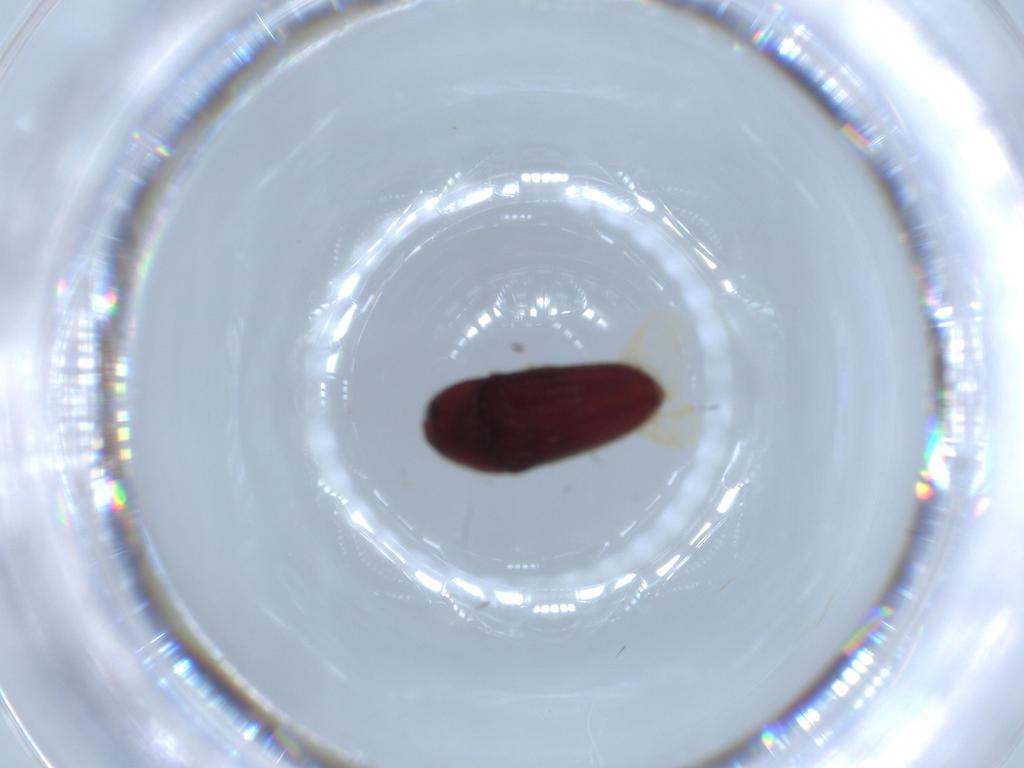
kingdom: Animalia
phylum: Arthropoda
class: Insecta
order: Coleoptera
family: Throscidae
